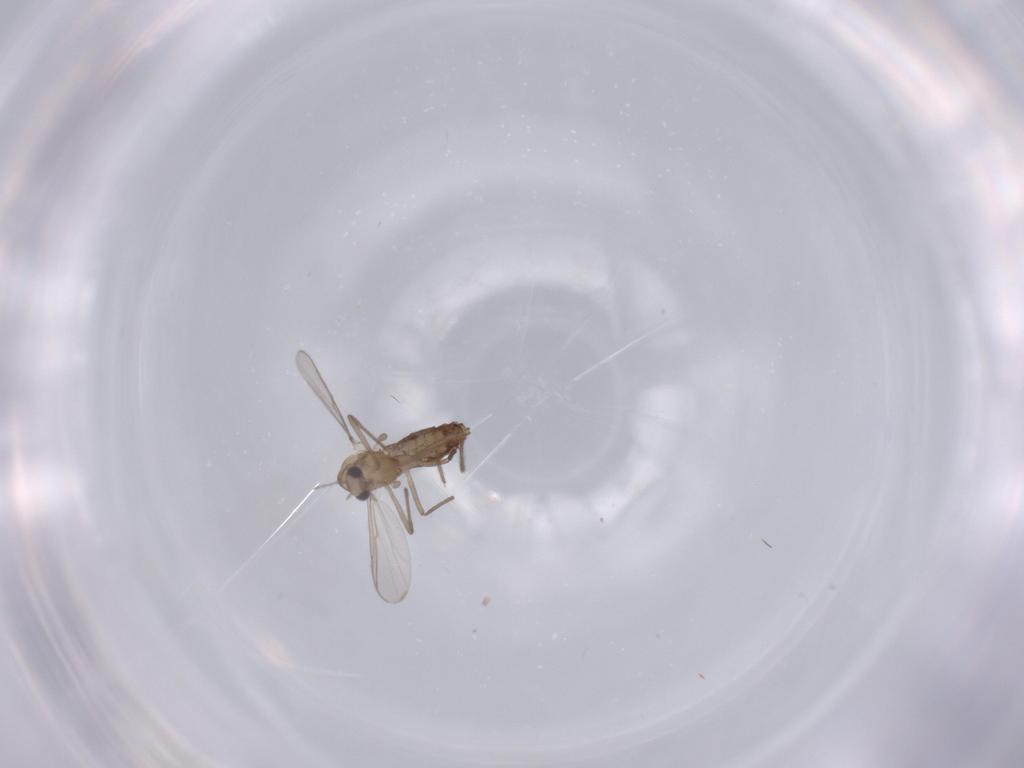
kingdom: Animalia
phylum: Arthropoda
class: Insecta
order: Diptera
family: Chironomidae
